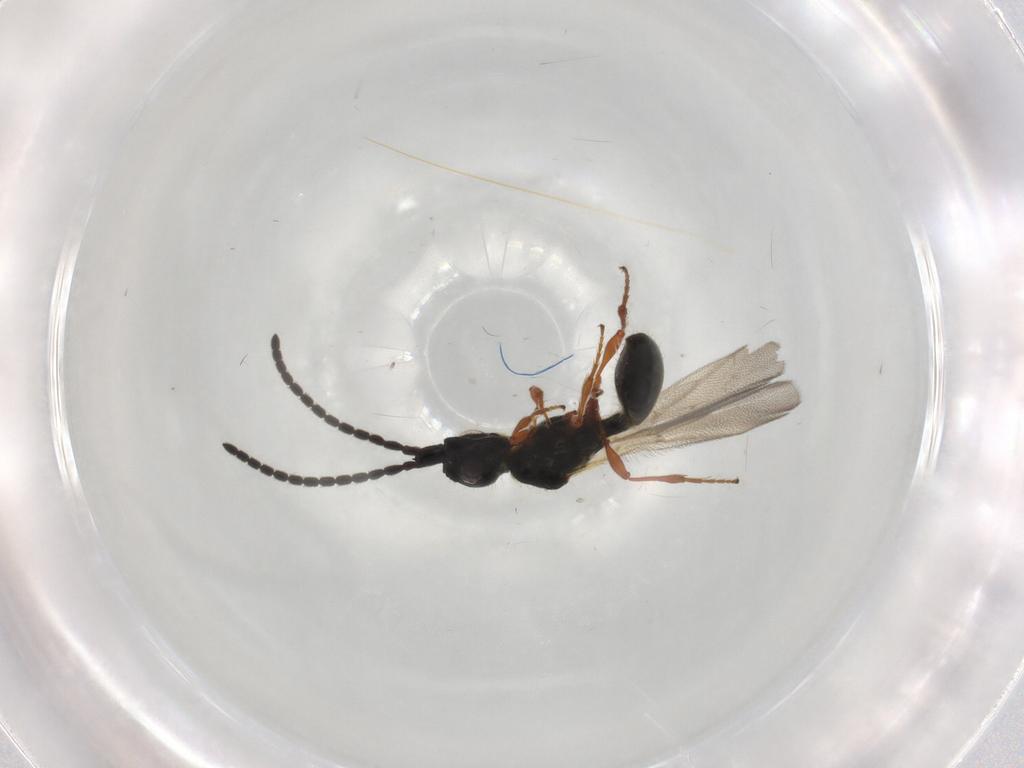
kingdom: Animalia
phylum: Arthropoda
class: Insecta
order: Hymenoptera
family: Diapriidae
